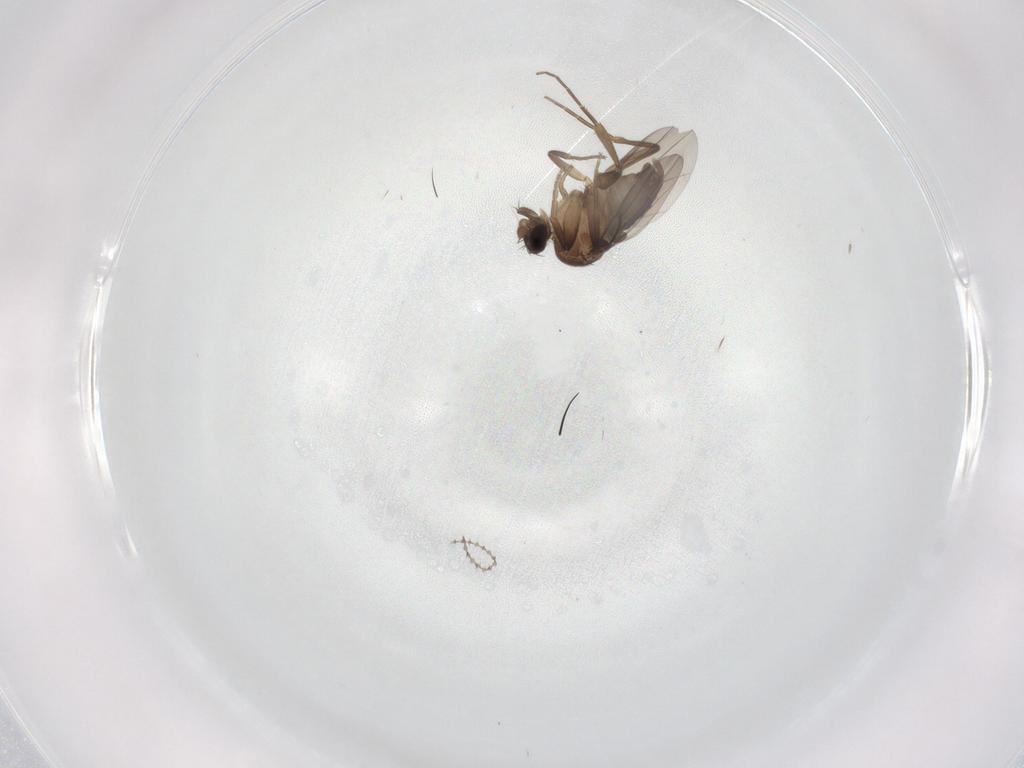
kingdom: Animalia
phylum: Arthropoda
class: Insecta
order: Diptera
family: Phoridae
